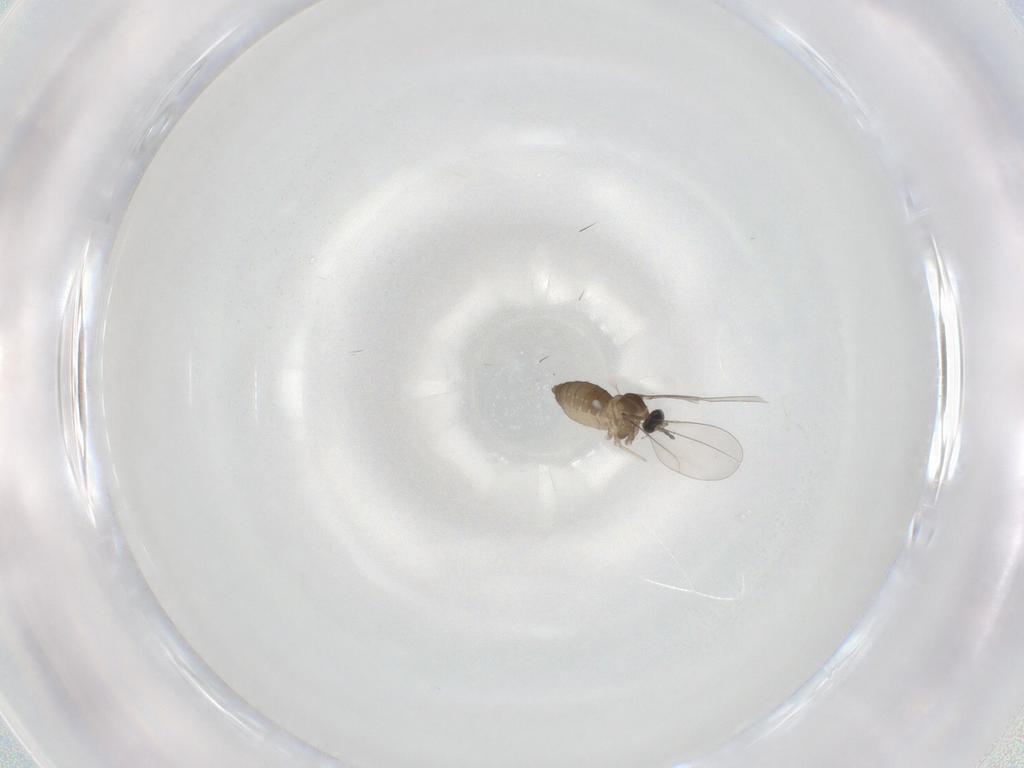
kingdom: Animalia
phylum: Arthropoda
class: Insecta
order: Diptera
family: Cecidomyiidae
